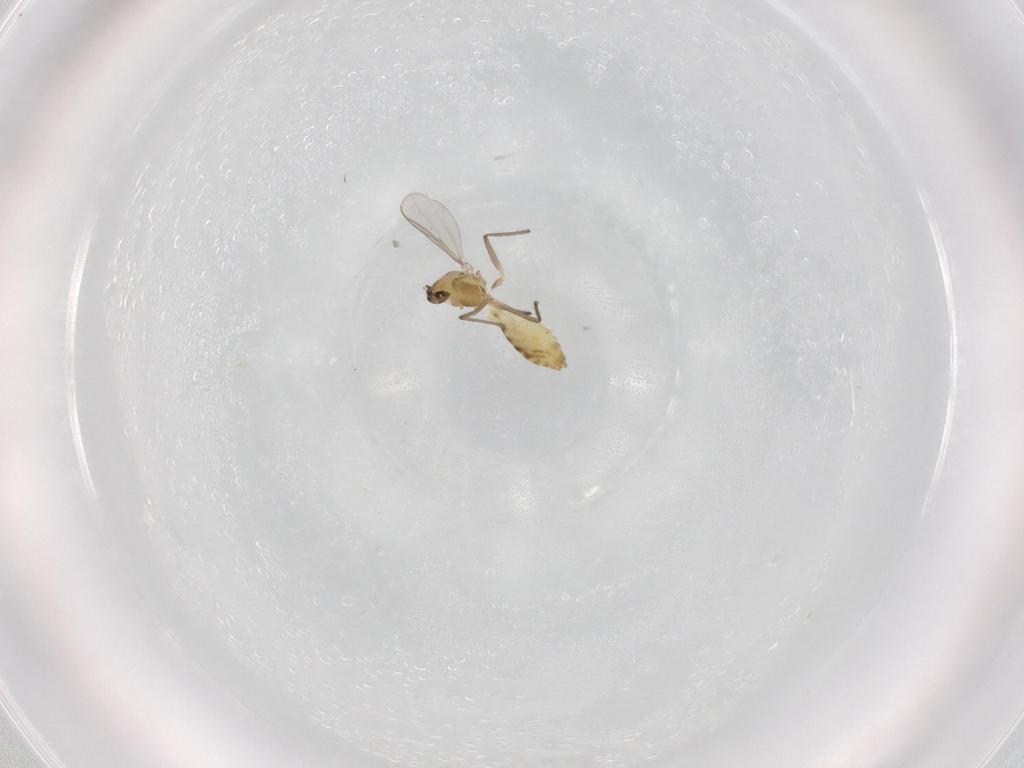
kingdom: Animalia
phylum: Arthropoda
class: Insecta
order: Diptera
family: Chironomidae
